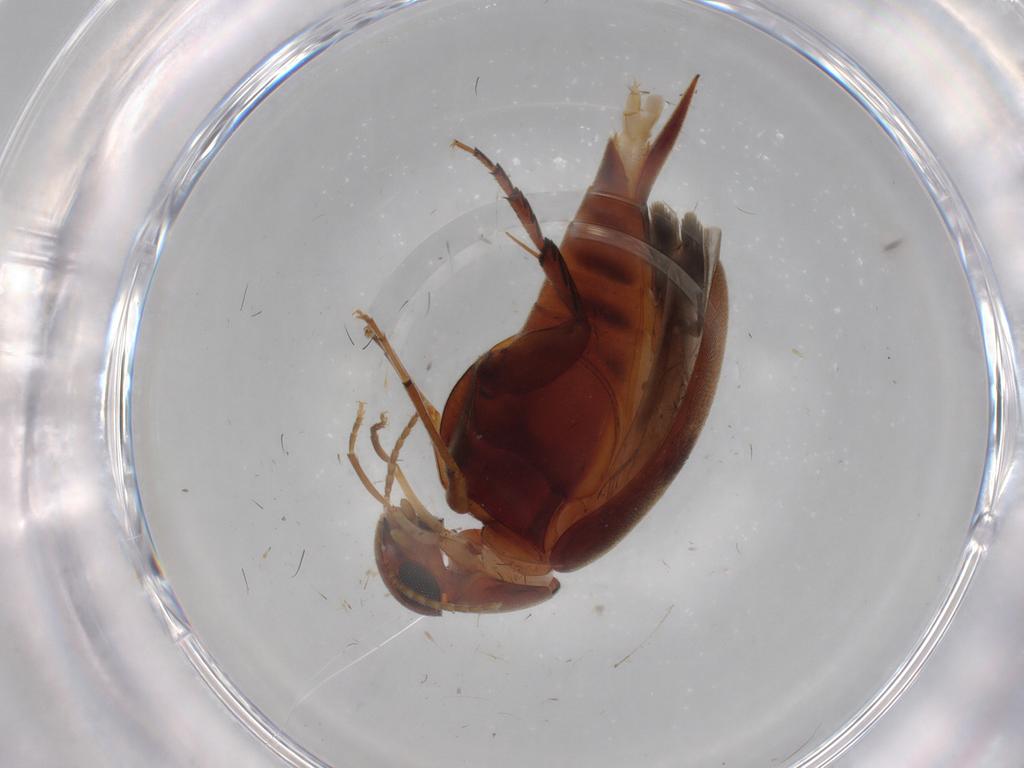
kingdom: Animalia
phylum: Arthropoda
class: Insecta
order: Coleoptera
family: Mordellidae
